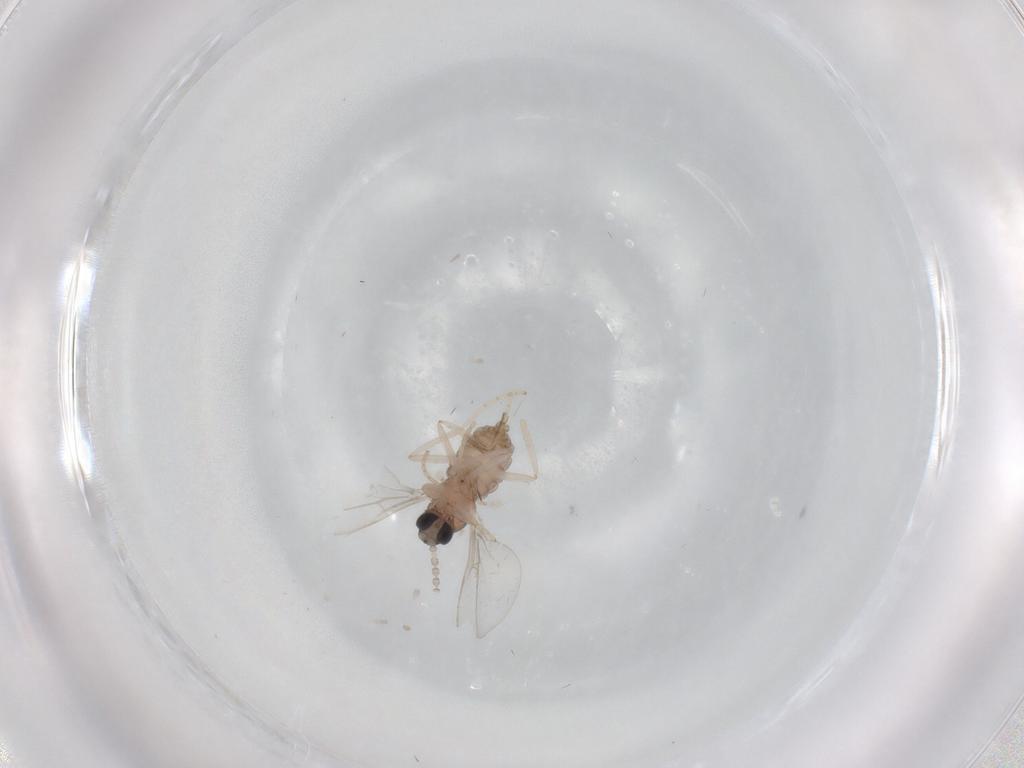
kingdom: Animalia
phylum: Arthropoda
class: Insecta
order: Diptera
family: Cecidomyiidae
